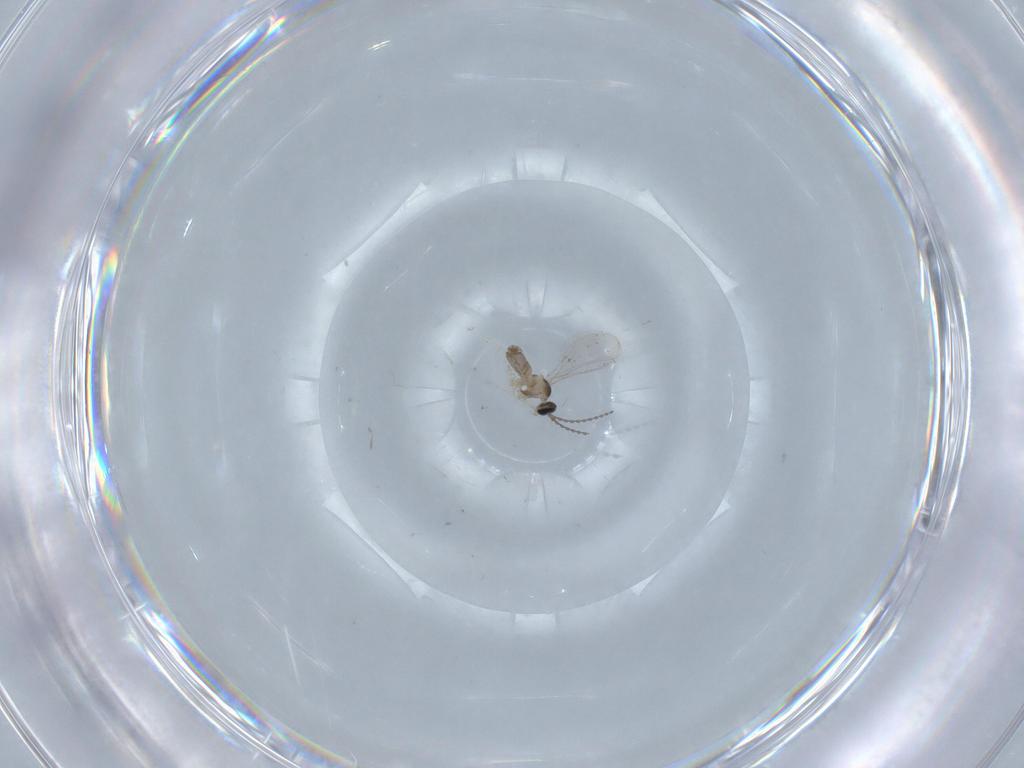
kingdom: Animalia
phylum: Arthropoda
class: Insecta
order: Diptera
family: Cecidomyiidae
